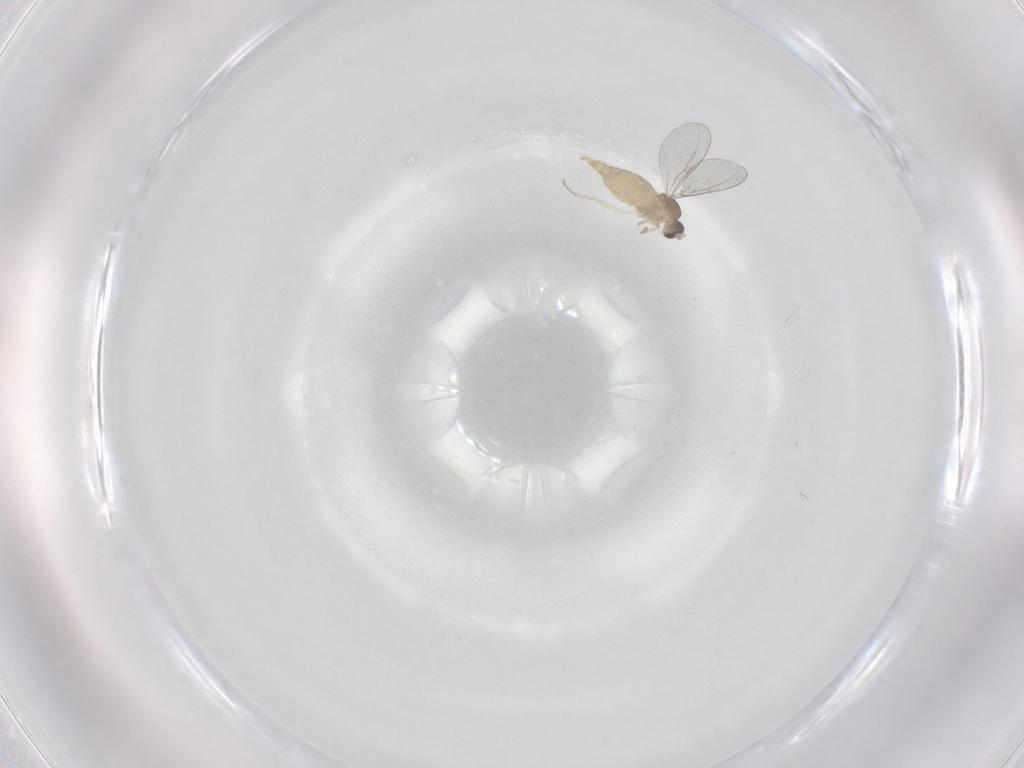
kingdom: Animalia
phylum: Arthropoda
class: Insecta
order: Diptera
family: Cecidomyiidae
